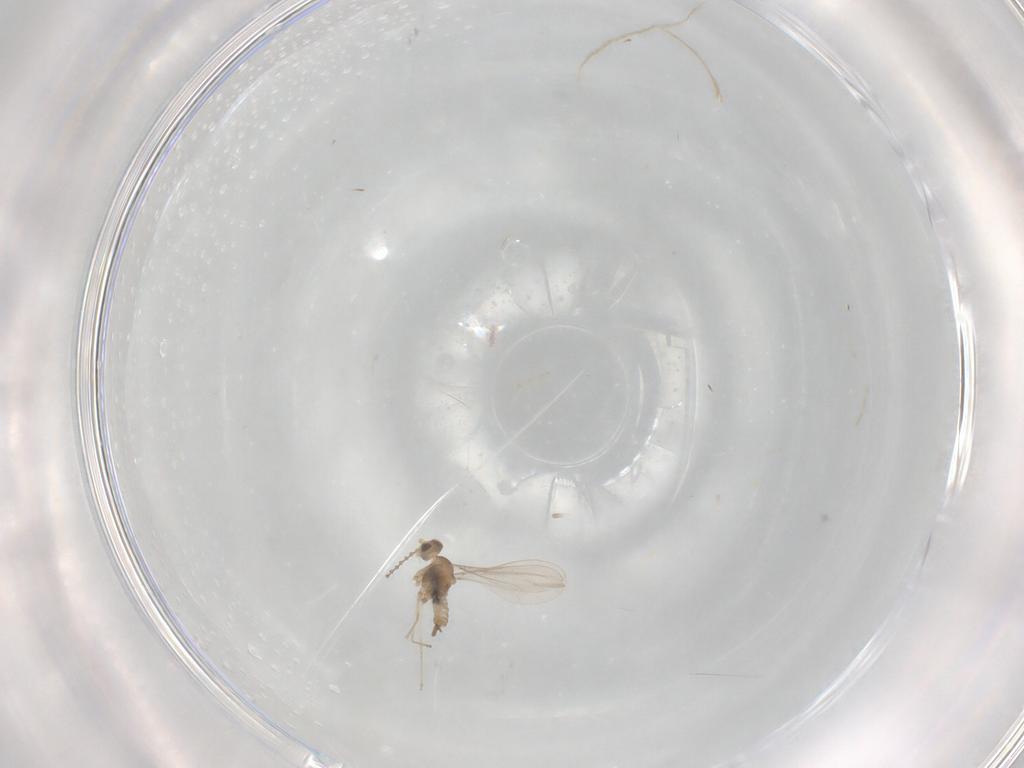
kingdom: Animalia
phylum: Arthropoda
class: Insecta
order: Diptera
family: Cecidomyiidae
